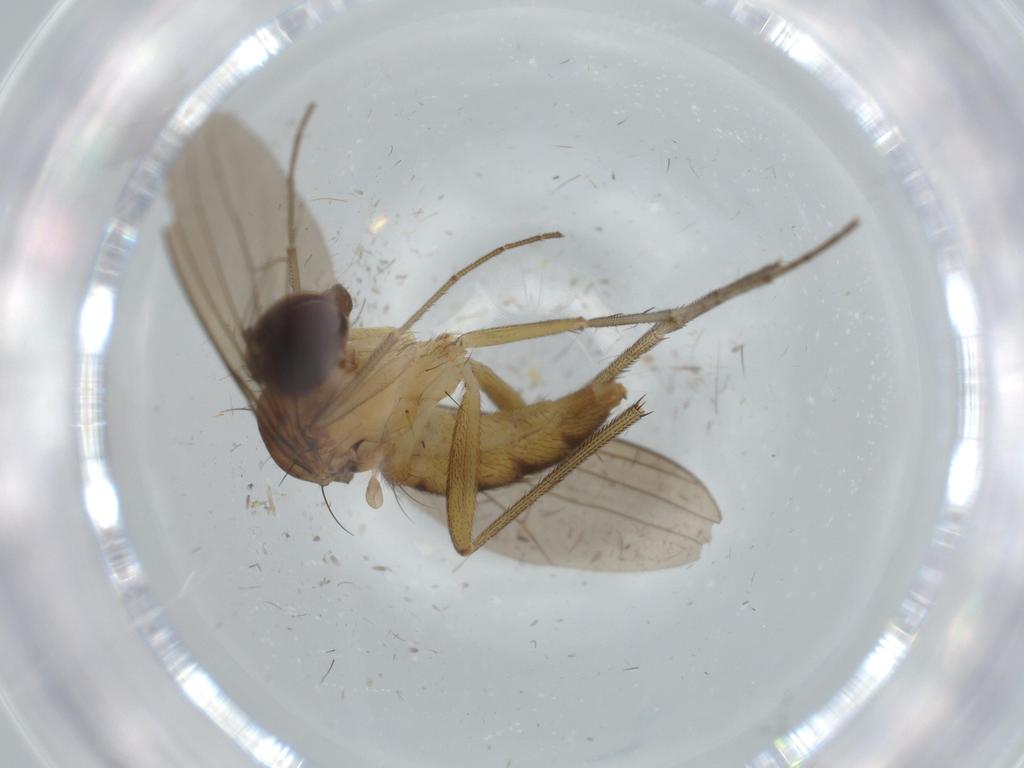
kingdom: Animalia
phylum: Arthropoda
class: Insecta
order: Diptera
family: Dolichopodidae
